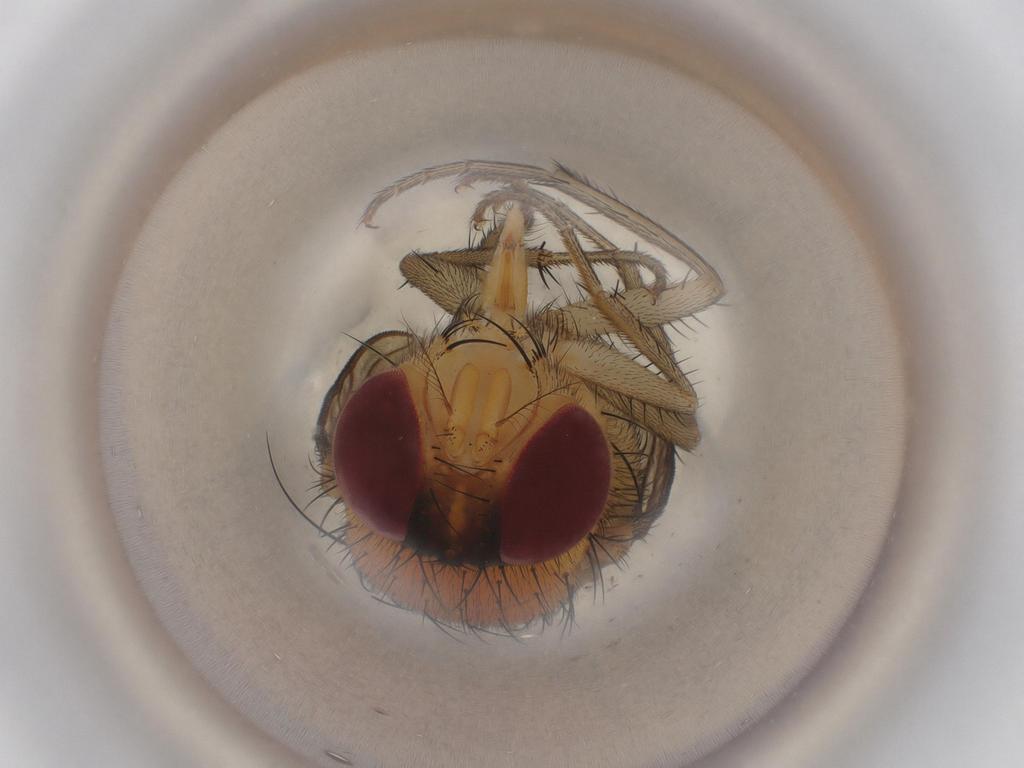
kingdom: Animalia
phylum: Arthropoda
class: Insecta
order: Diptera
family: Calliphoridae
